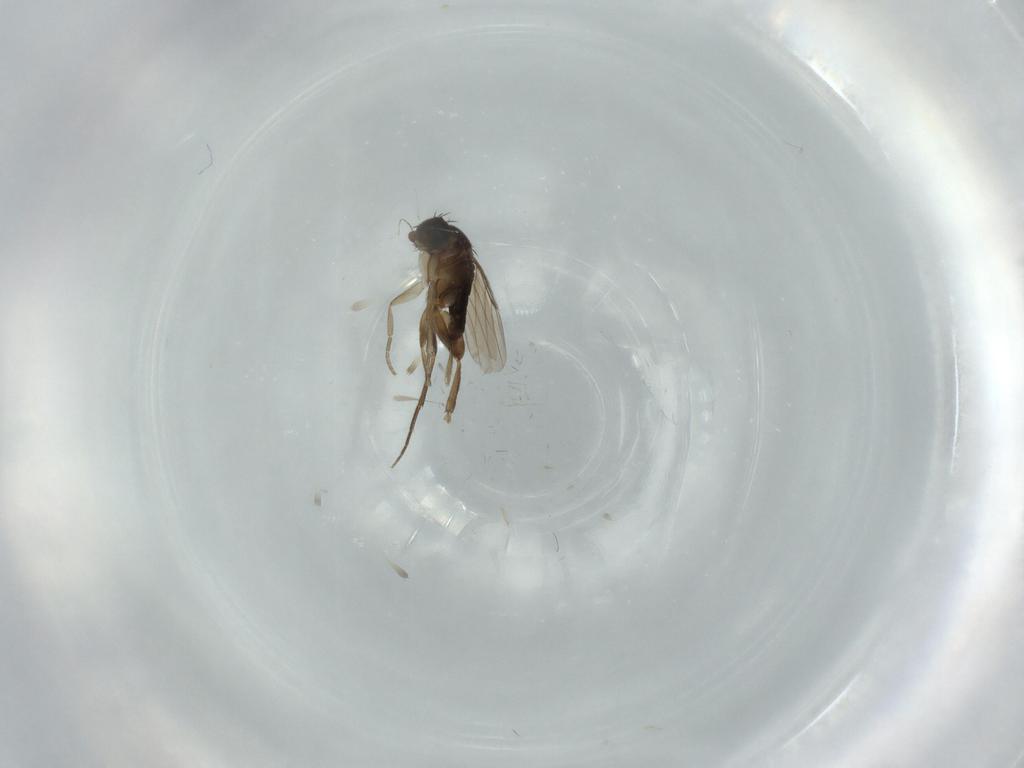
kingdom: Animalia
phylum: Arthropoda
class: Insecta
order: Diptera
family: Phoridae
